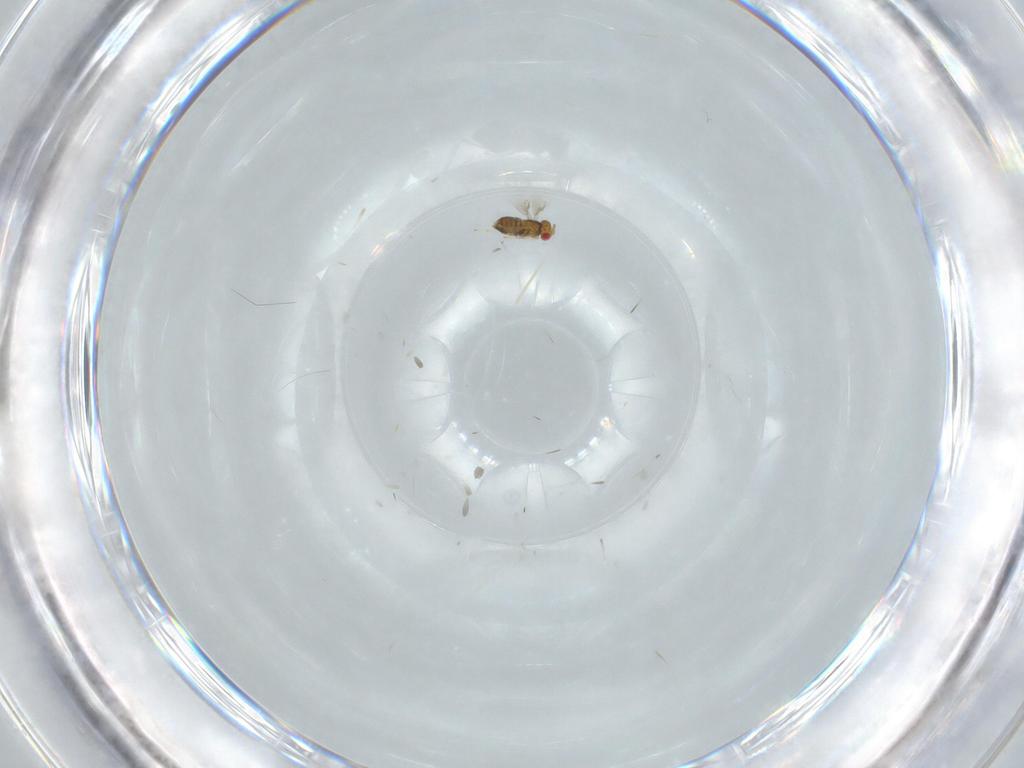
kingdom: Animalia
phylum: Arthropoda
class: Insecta
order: Hymenoptera
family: Trichogrammatidae
